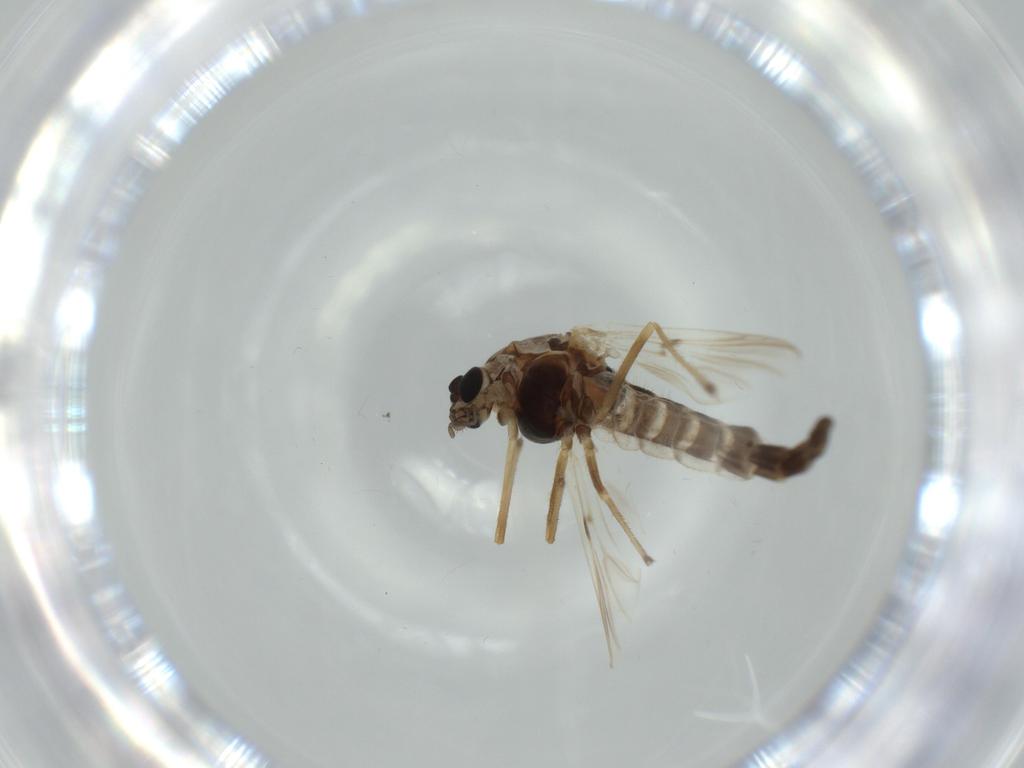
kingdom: Animalia
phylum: Arthropoda
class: Insecta
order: Diptera
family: Chironomidae
